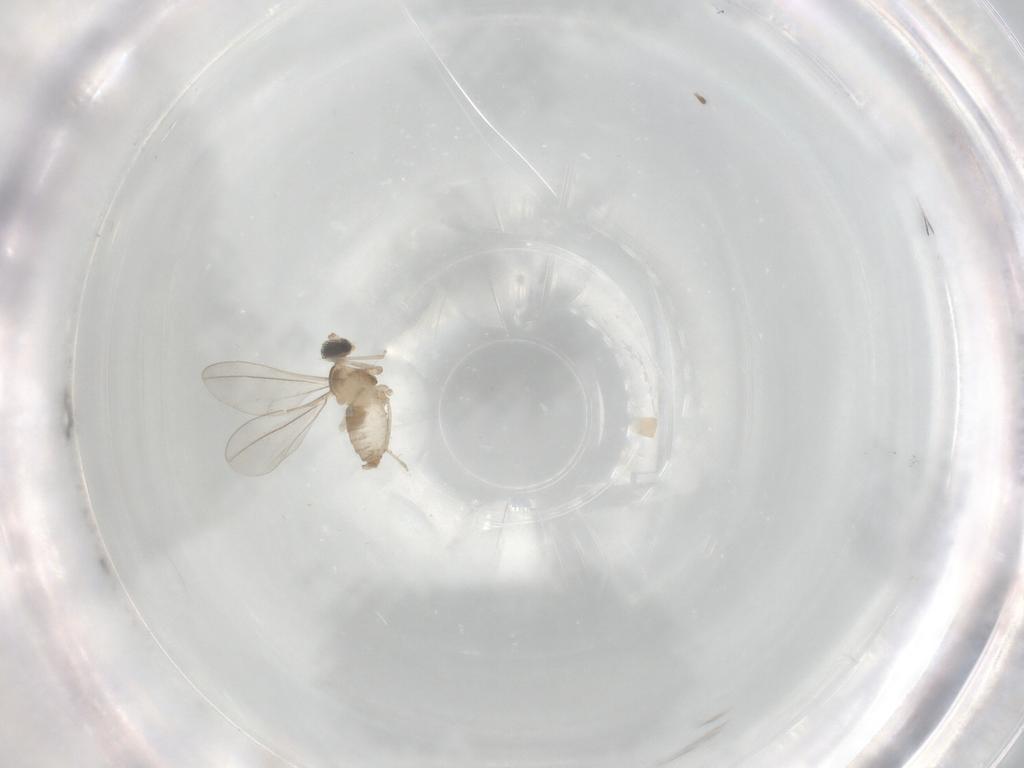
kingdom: Animalia
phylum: Arthropoda
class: Insecta
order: Diptera
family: Cecidomyiidae
